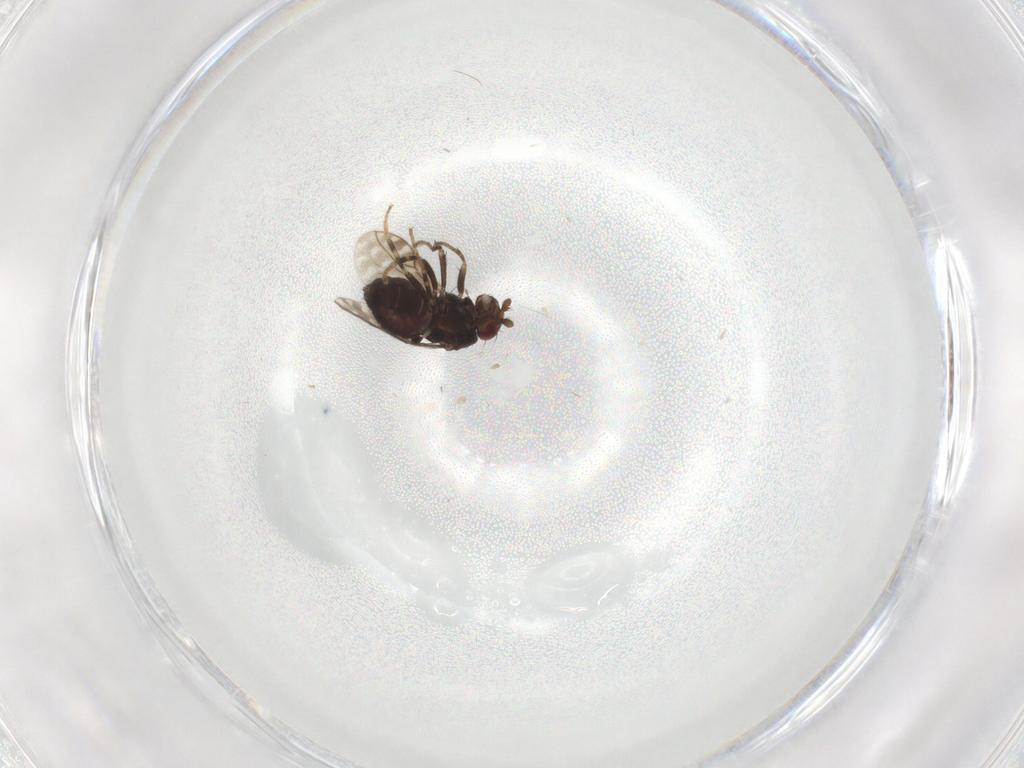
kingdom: Animalia
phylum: Arthropoda
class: Insecta
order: Diptera
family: Sphaeroceridae
